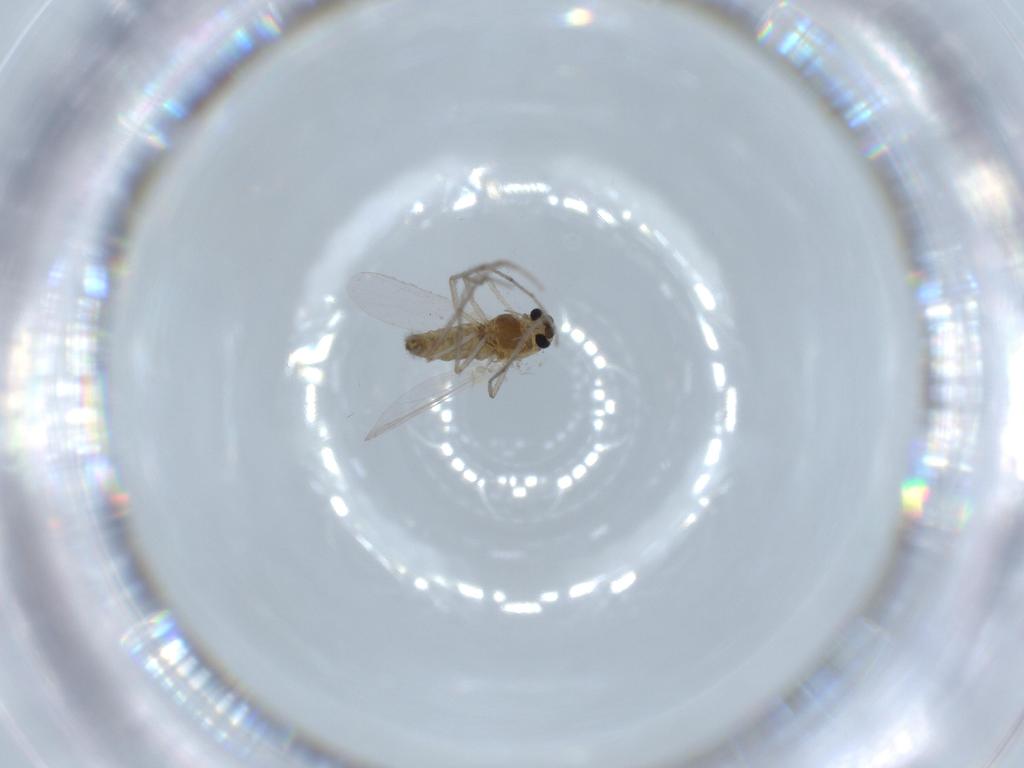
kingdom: Animalia
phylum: Arthropoda
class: Insecta
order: Diptera
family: Chironomidae
